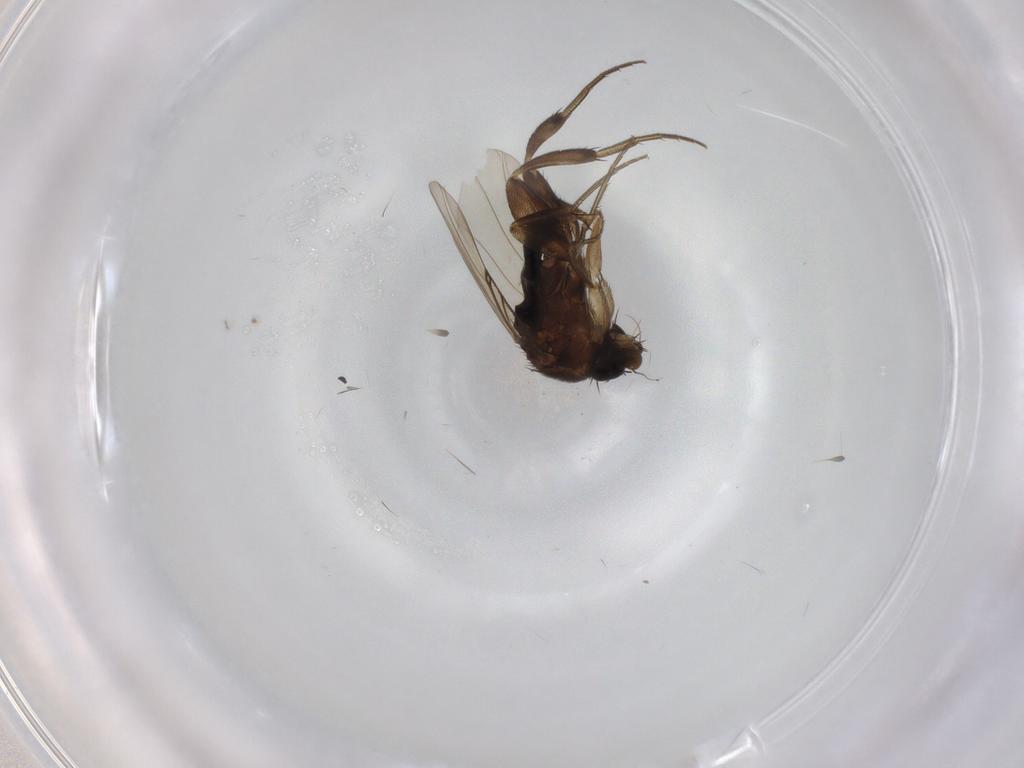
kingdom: Animalia
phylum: Arthropoda
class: Insecta
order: Diptera
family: Phoridae
